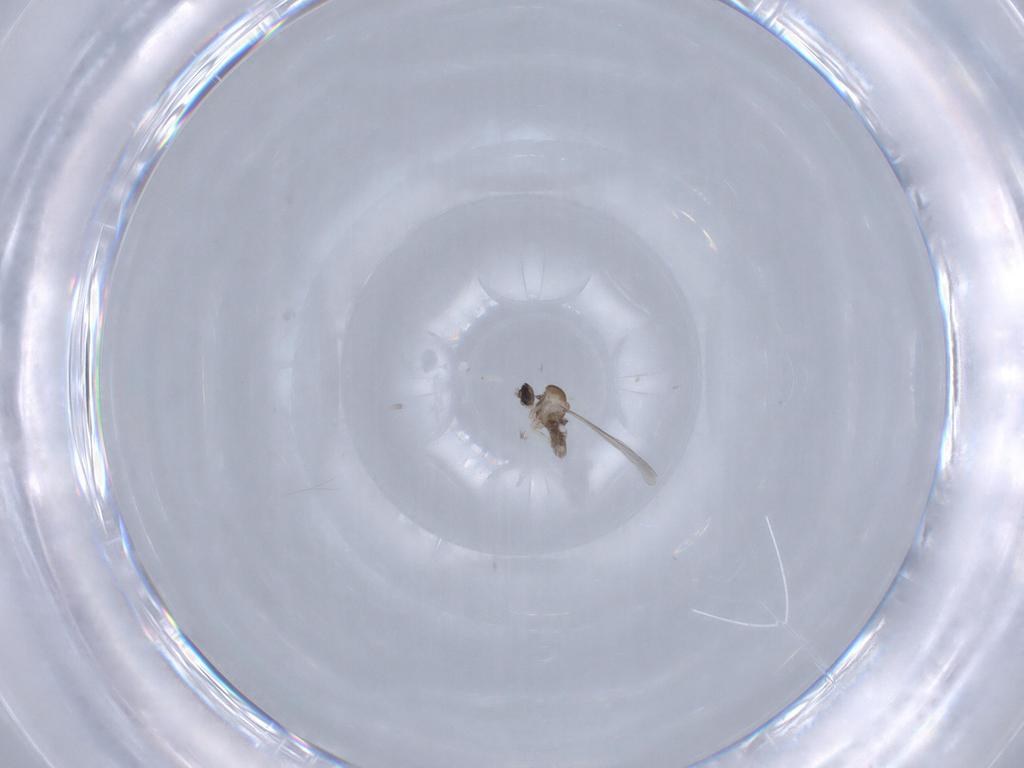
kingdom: Animalia
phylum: Arthropoda
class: Insecta
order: Diptera
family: Cecidomyiidae
